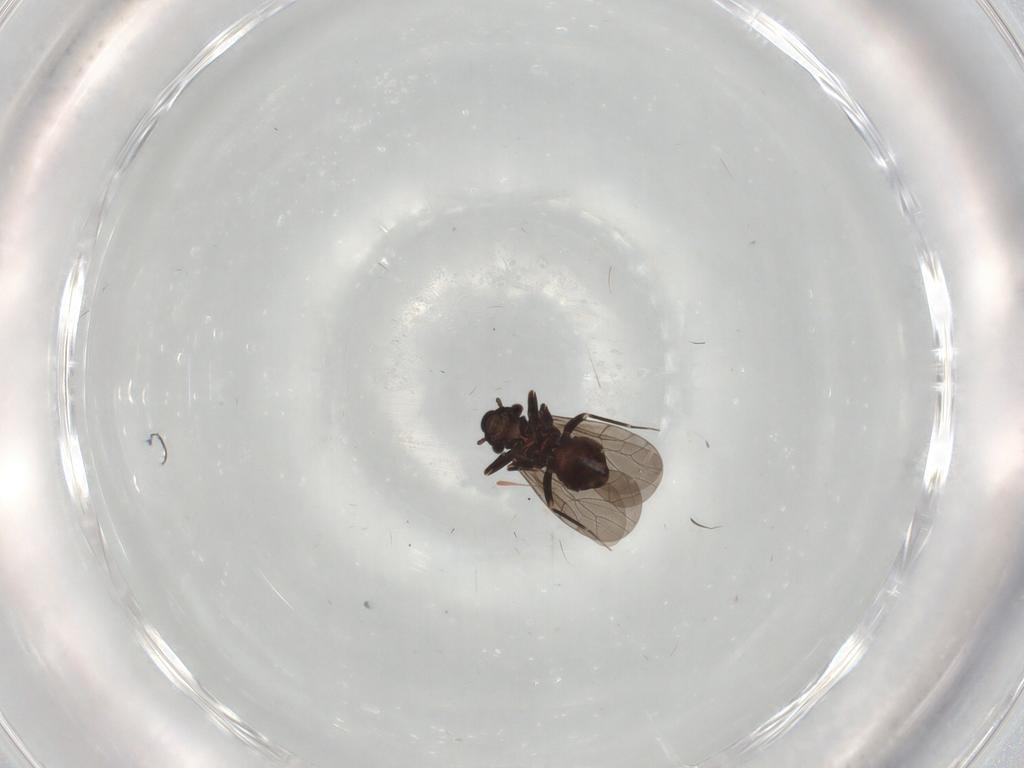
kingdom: Animalia
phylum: Arthropoda
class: Insecta
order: Psocodea
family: Lepidopsocidae
